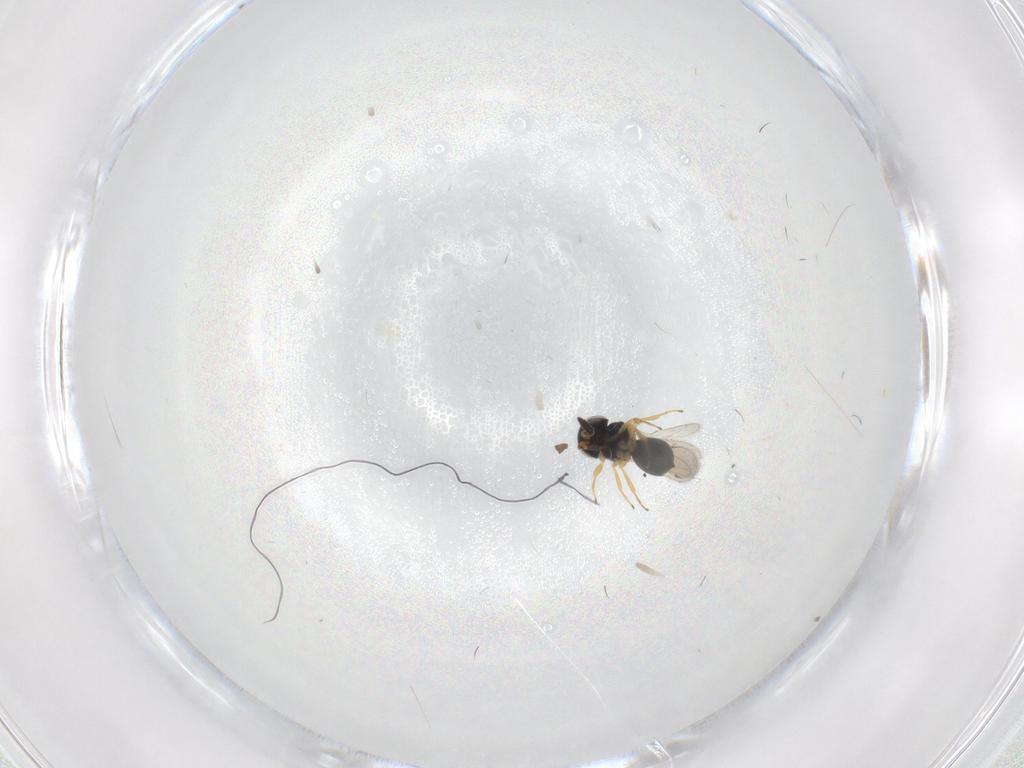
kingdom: Animalia
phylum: Arthropoda
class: Insecta
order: Hymenoptera
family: Scelionidae
